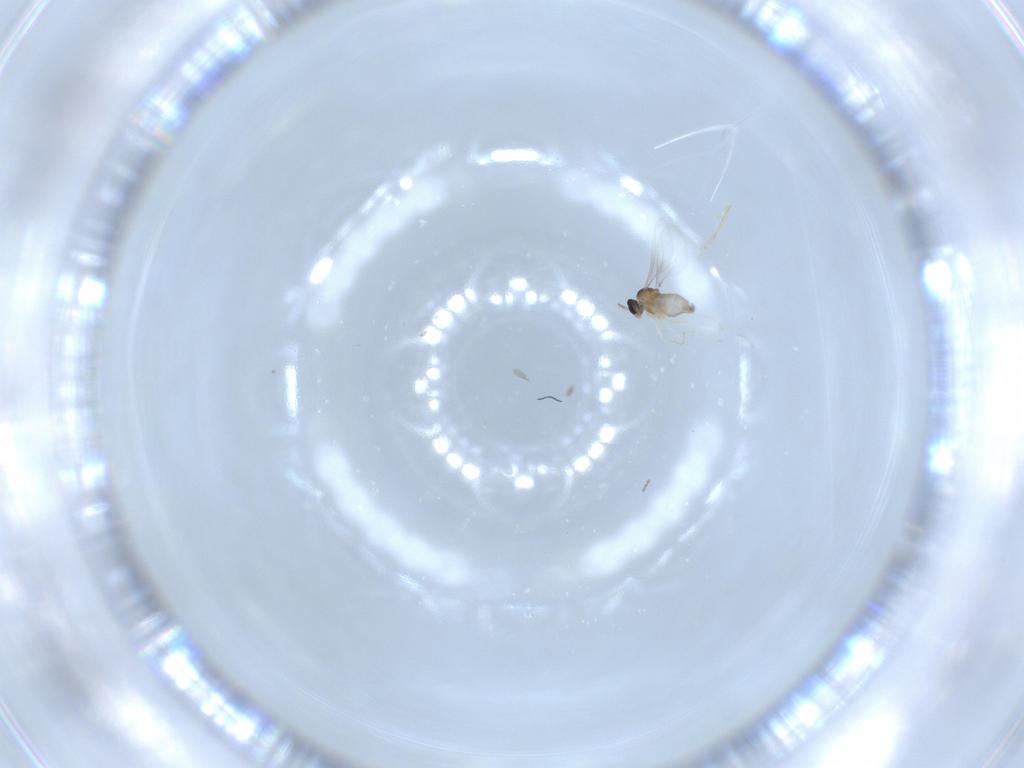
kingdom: Animalia
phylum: Arthropoda
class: Insecta
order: Diptera
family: Cecidomyiidae
